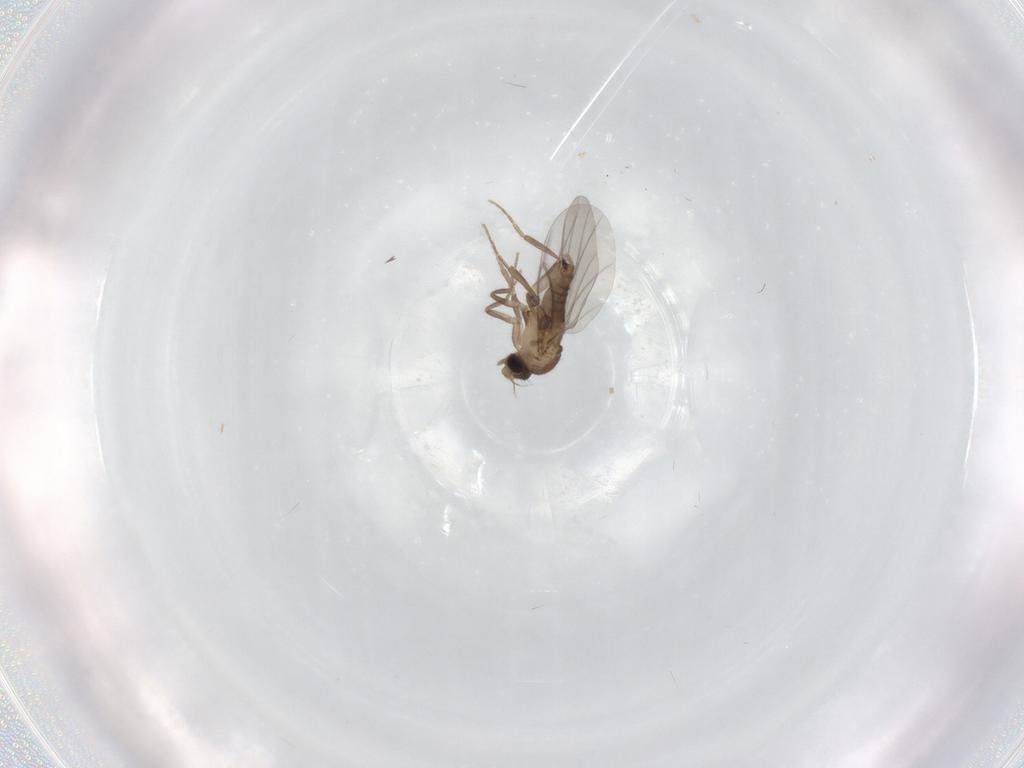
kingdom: Animalia
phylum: Arthropoda
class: Insecta
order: Diptera
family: Cecidomyiidae
